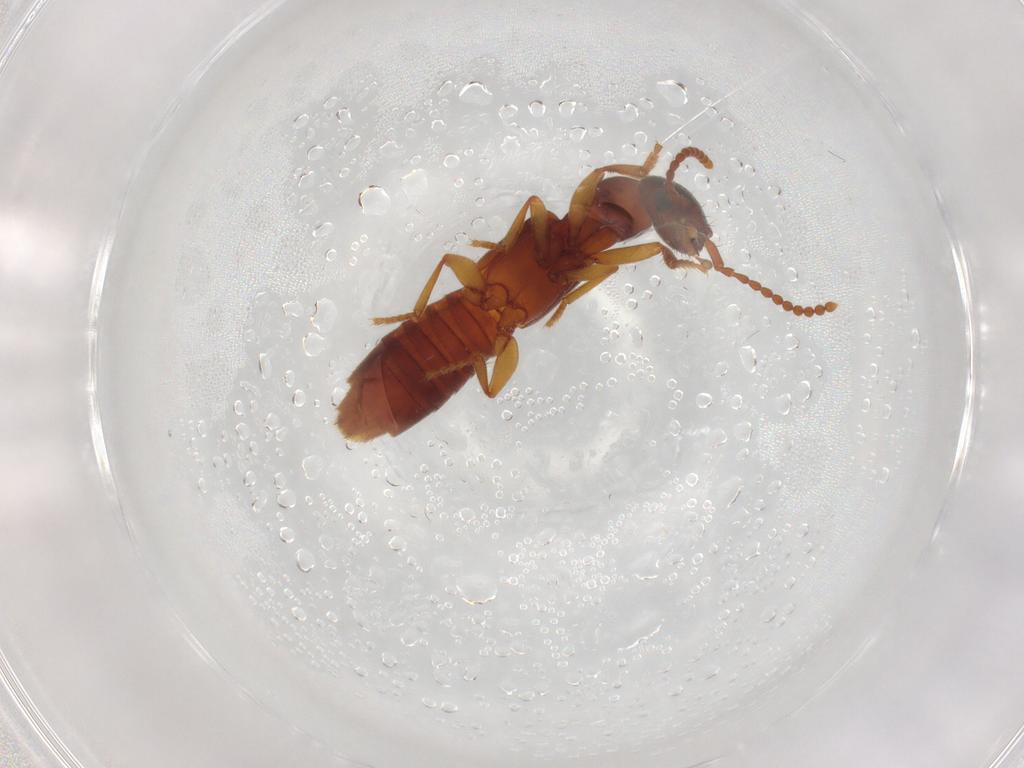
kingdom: Animalia
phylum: Arthropoda
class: Insecta
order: Coleoptera
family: Staphylinidae
